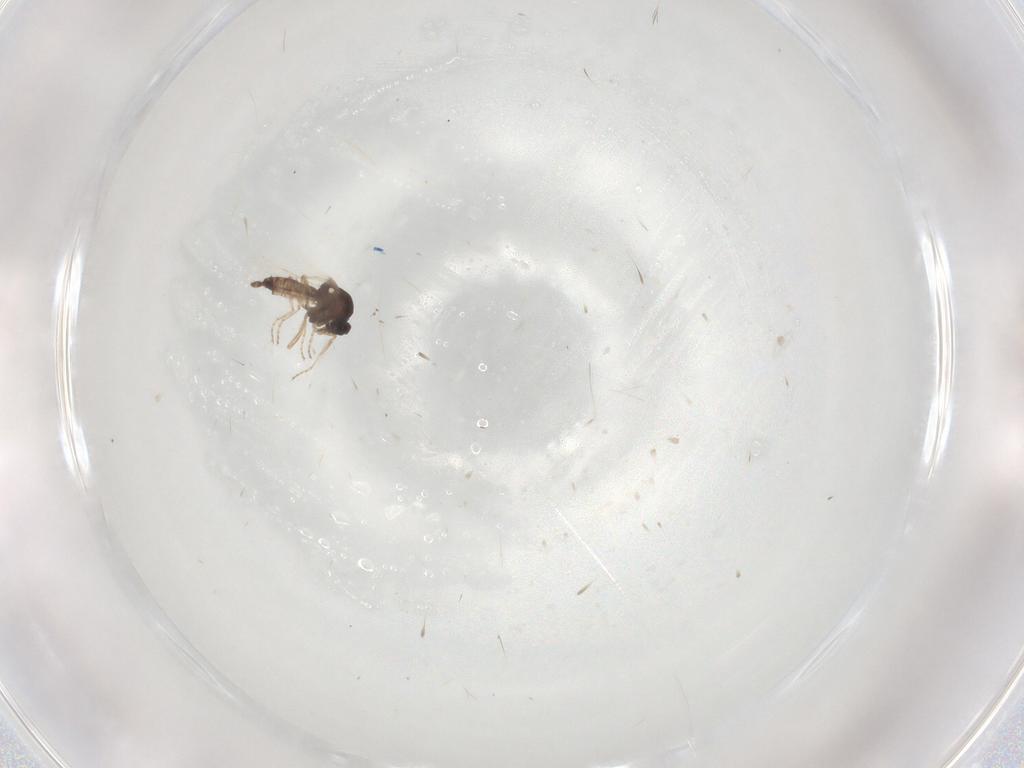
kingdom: Animalia
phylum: Arthropoda
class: Insecta
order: Diptera
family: Ceratopogonidae
